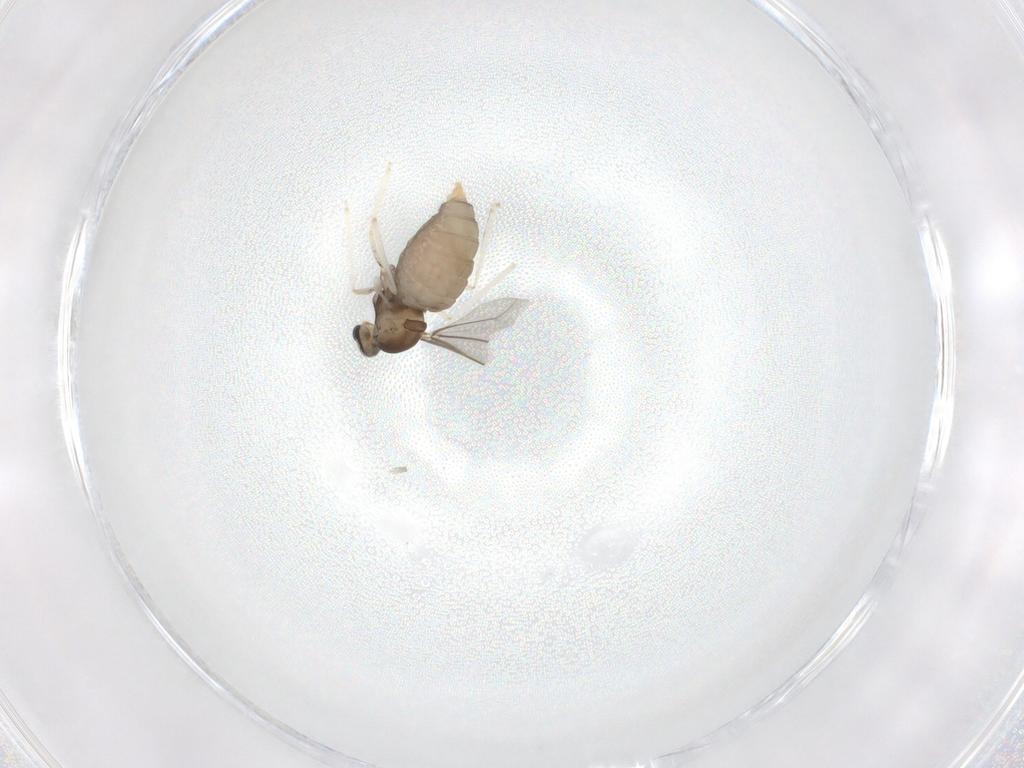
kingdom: Animalia
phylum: Arthropoda
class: Insecta
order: Diptera
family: Cecidomyiidae
